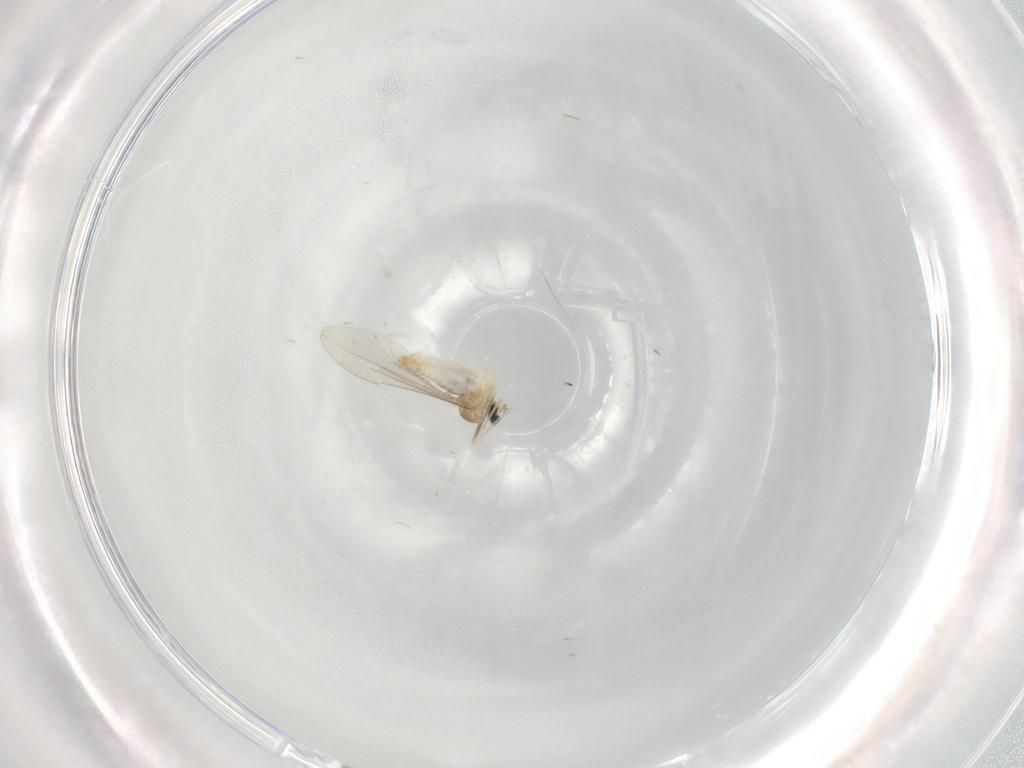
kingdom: Animalia
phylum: Arthropoda
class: Insecta
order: Diptera
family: Cecidomyiidae
